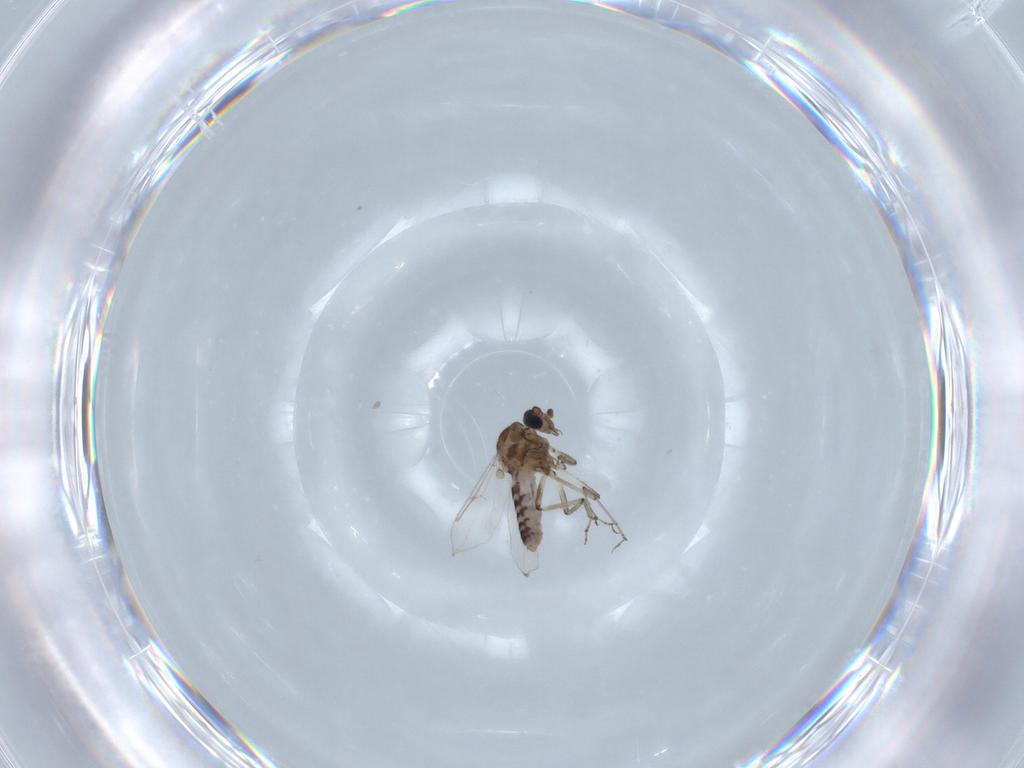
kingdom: Animalia
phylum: Arthropoda
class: Insecta
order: Diptera
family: Ceratopogonidae
